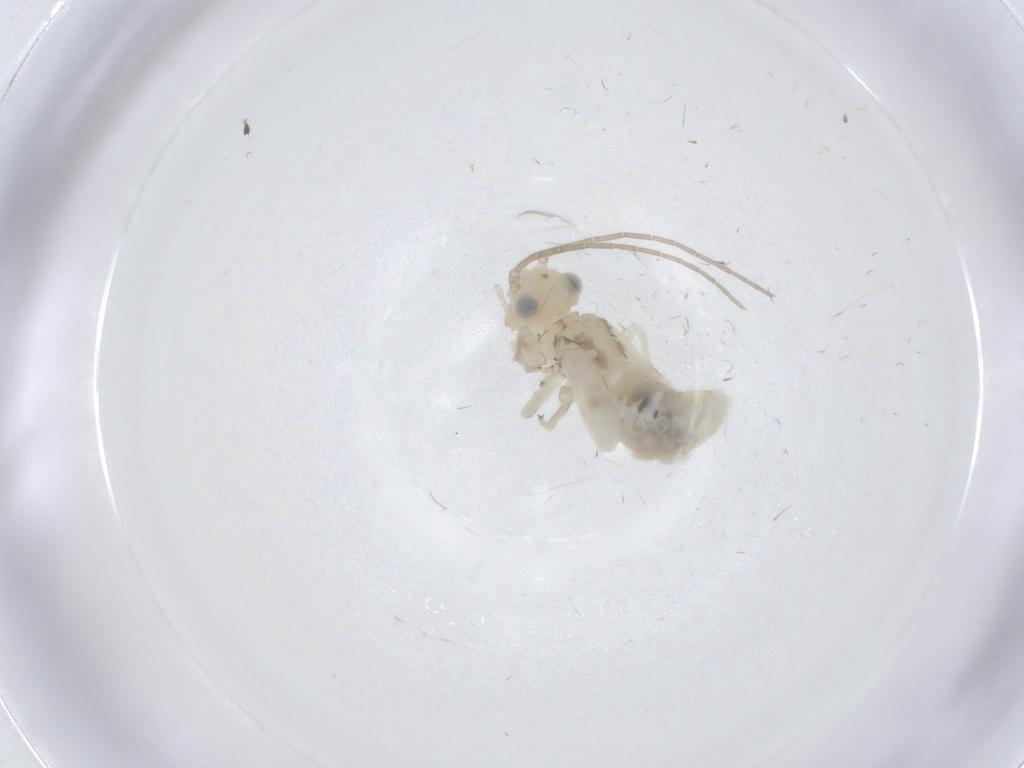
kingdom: Animalia
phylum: Arthropoda
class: Insecta
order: Psocodea
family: Caeciliusidae
